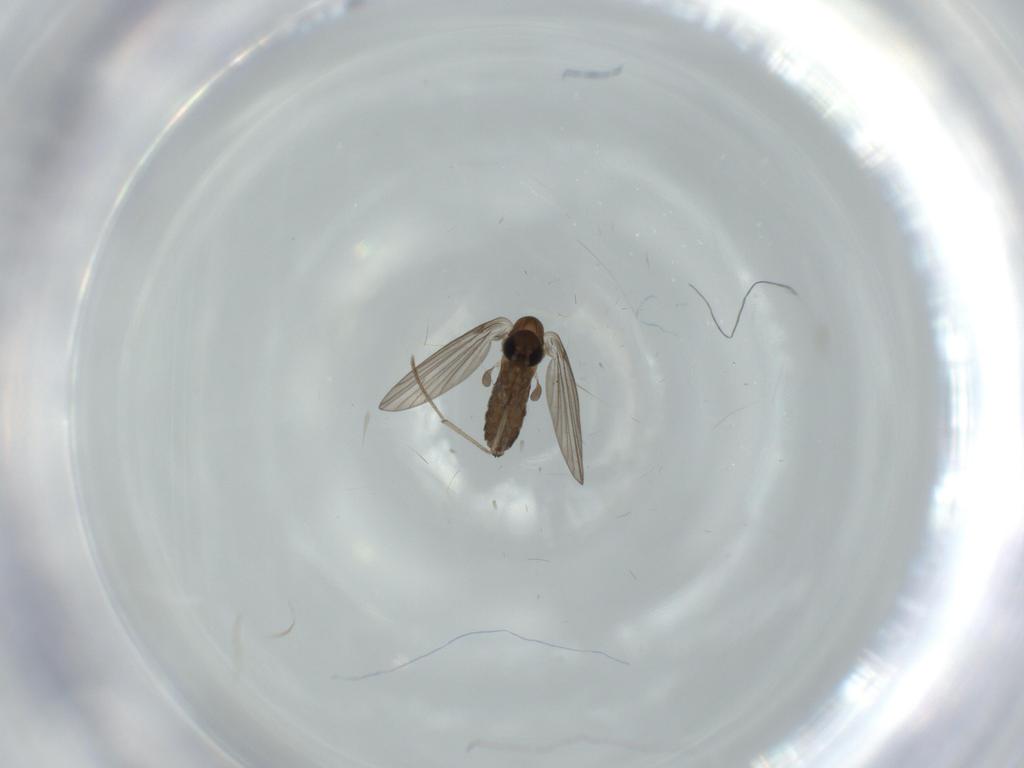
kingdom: Animalia
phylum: Arthropoda
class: Insecta
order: Diptera
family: Psychodidae
